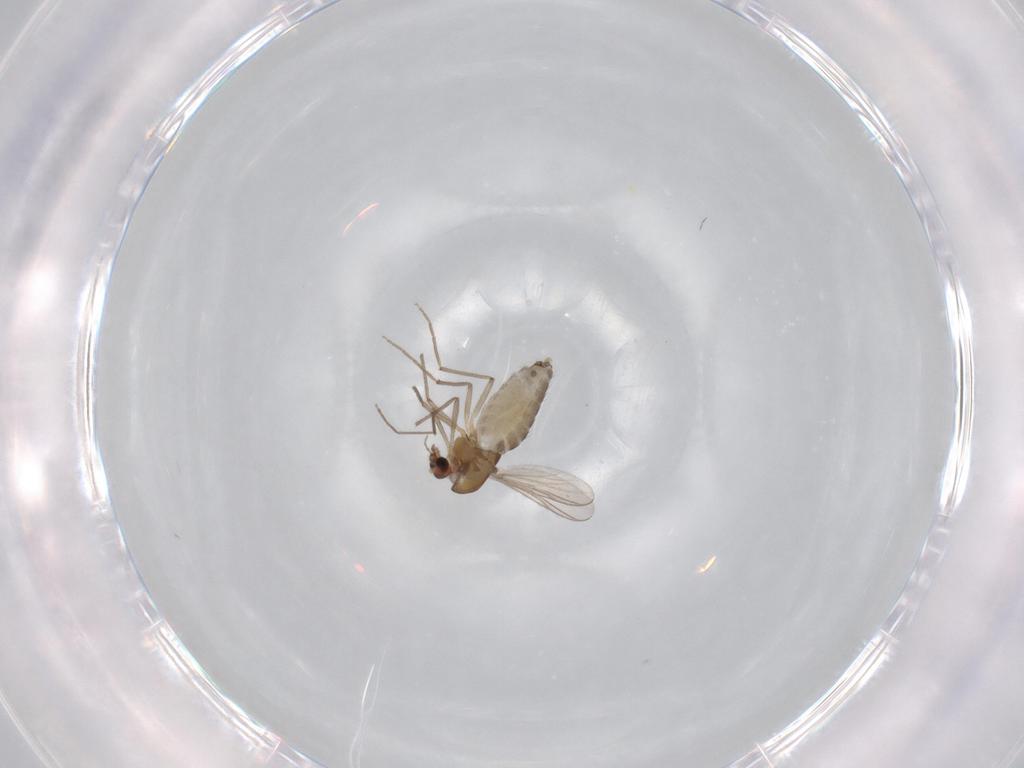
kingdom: Animalia
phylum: Arthropoda
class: Insecta
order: Diptera
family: Chironomidae
